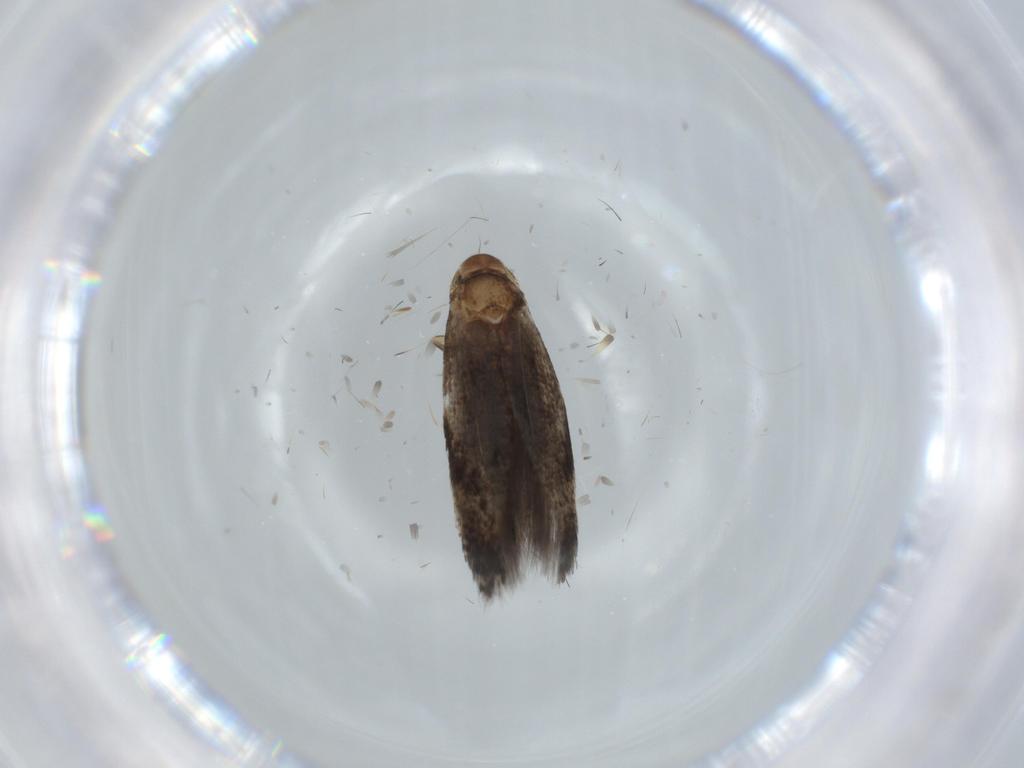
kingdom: Animalia
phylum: Arthropoda
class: Insecta
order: Lepidoptera
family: Gelechiidae
